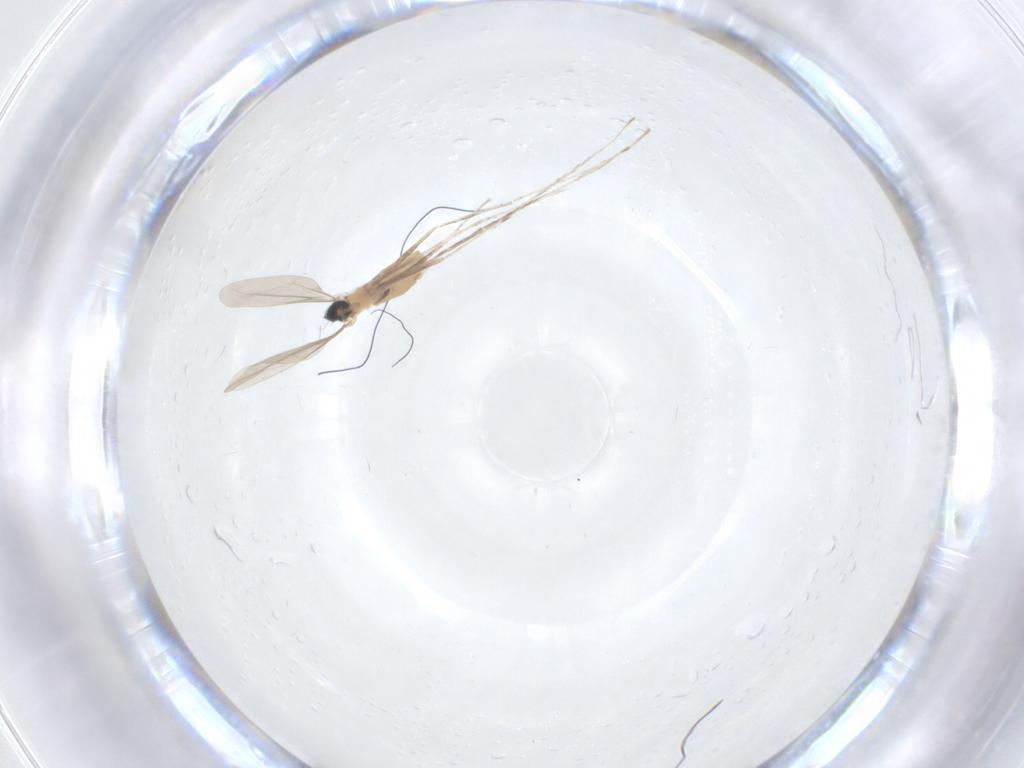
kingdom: Animalia
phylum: Arthropoda
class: Insecta
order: Diptera
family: Cecidomyiidae
